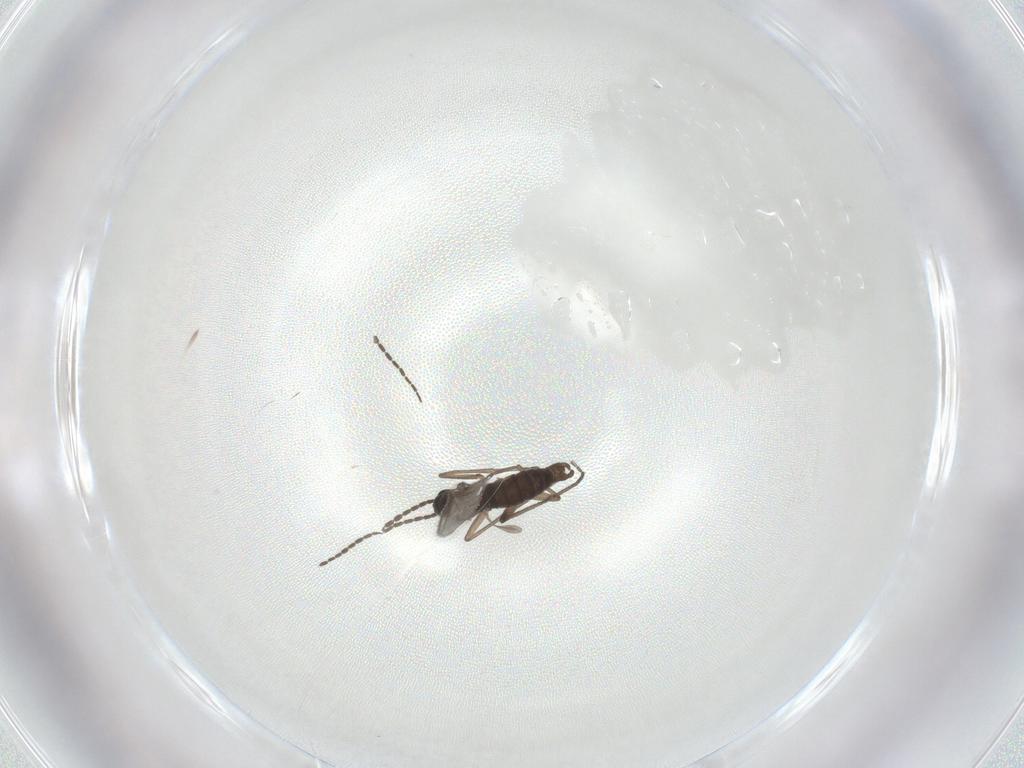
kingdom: Animalia
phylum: Arthropoda
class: Insecta
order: Diptera
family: Sciaridae
